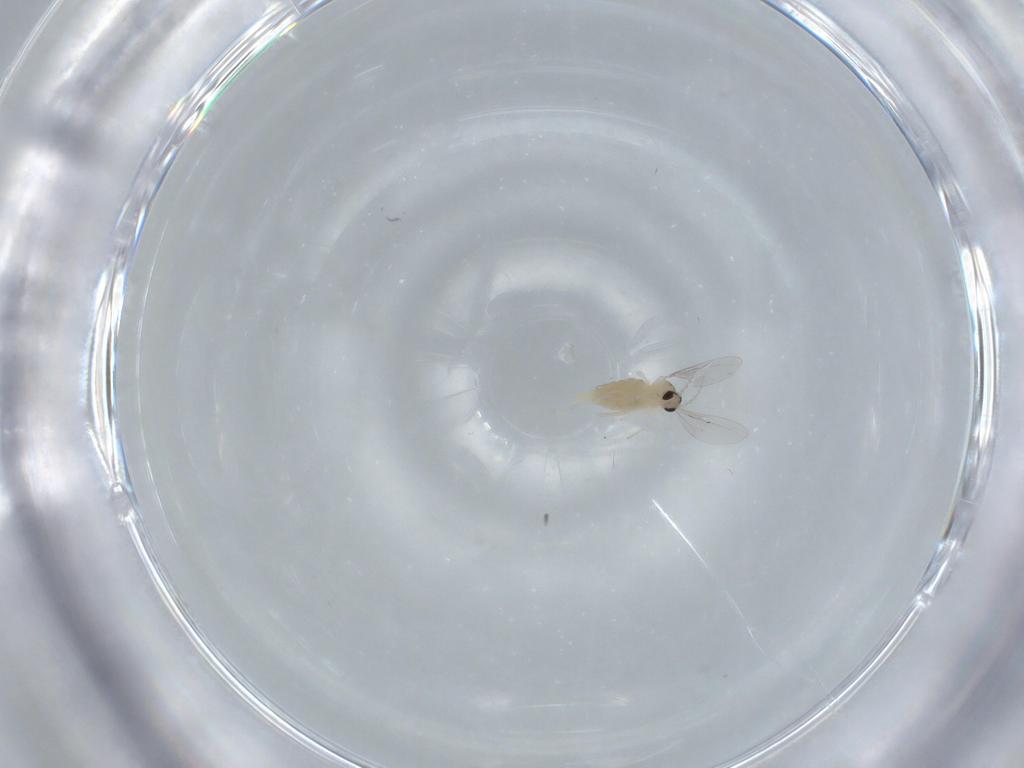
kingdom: Animalia
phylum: Arthropoda
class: Insecta
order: Diptera
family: Cecidomyiidae
